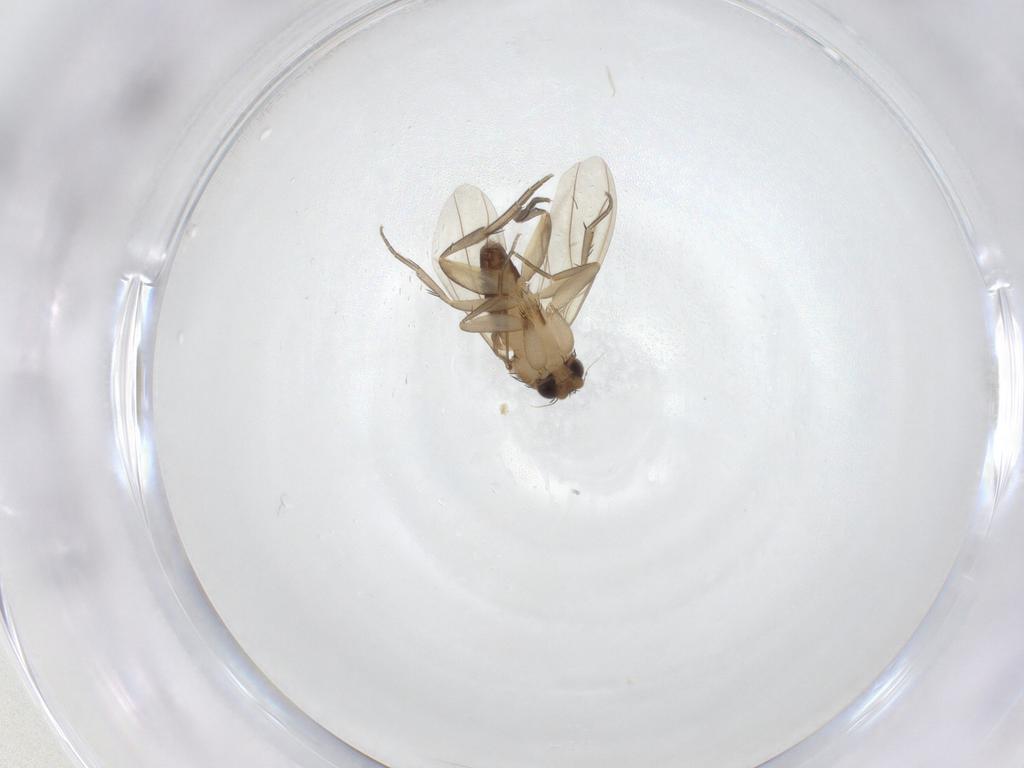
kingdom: Animalia
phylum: Arthropoda
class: Insecta
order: Diptera
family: Phoridae
